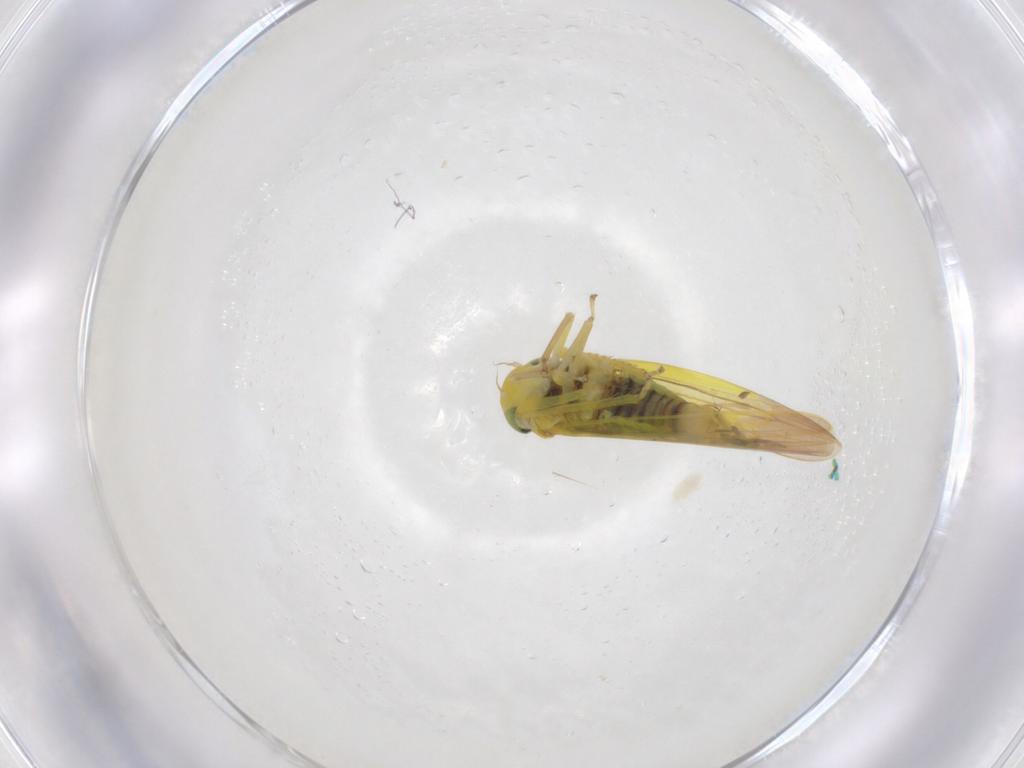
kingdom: Animalia
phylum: Arthropoda
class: Insecta
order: Hemiptera
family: Cicadellidae
